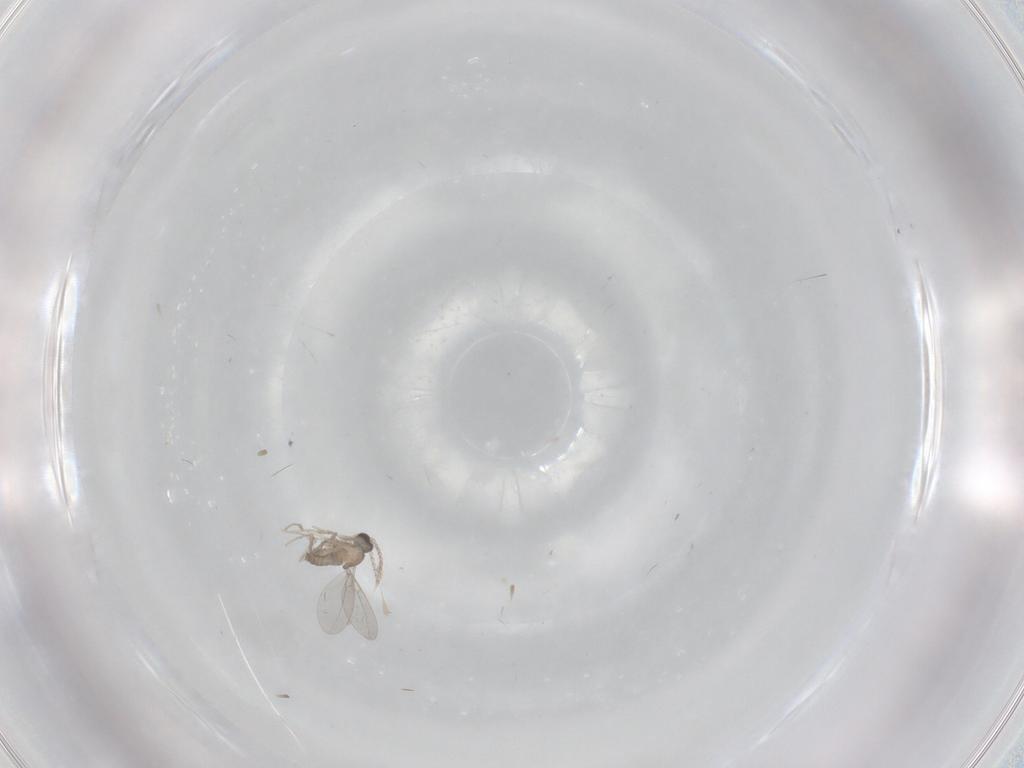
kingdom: Animalia
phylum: Arthropoda
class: Insecta
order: Diptera
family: Cecidomyiidae
